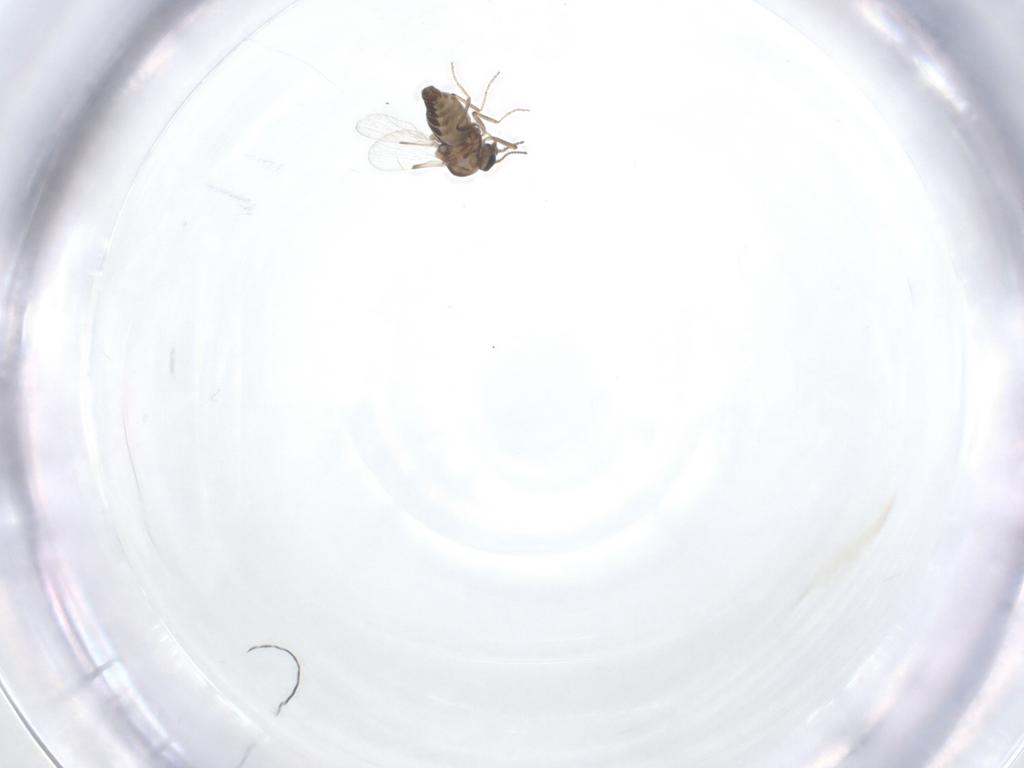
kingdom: Animalia
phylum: Arthropoda
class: Insecta
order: Diptera
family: Ceratopogonidae
